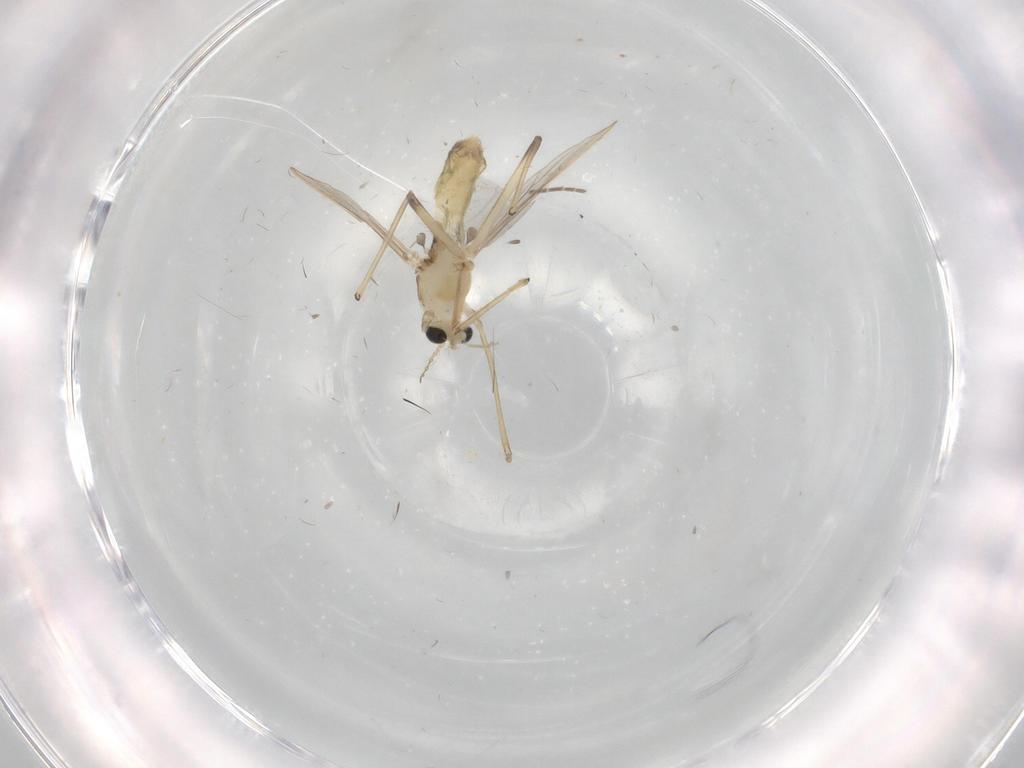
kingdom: Animalia
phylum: Arthropoda
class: Insecta
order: Diptera
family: Chironomidae
